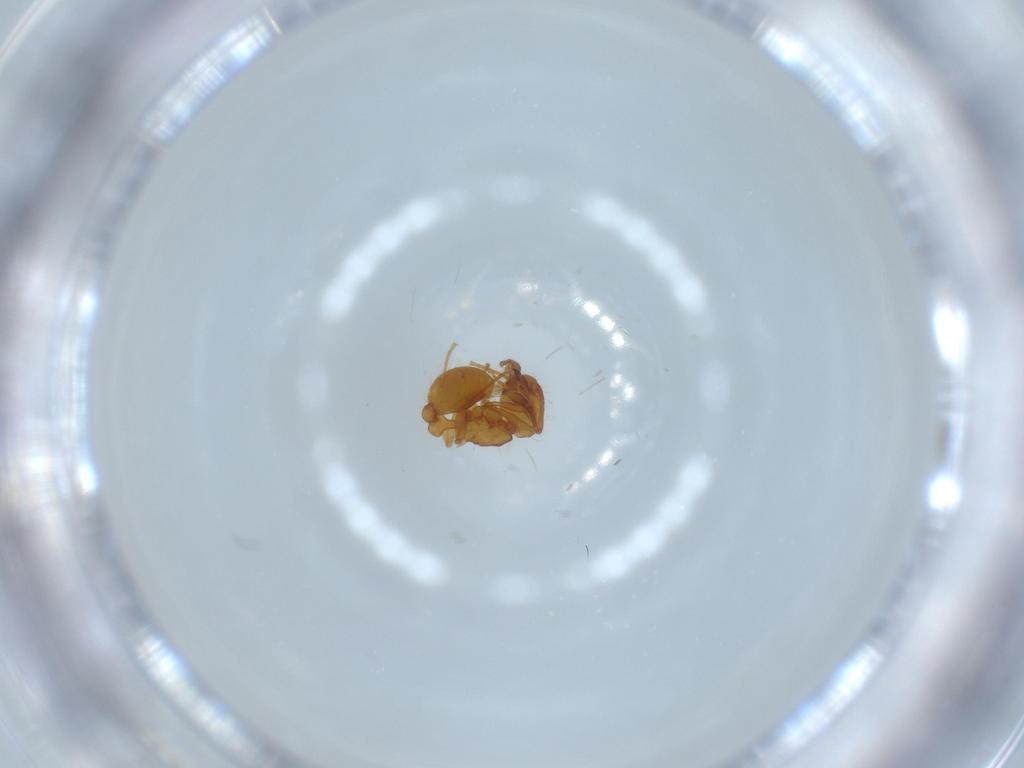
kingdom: Animalia
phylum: Arthropoda
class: Insecta
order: Hymenoptera
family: Formicidae
